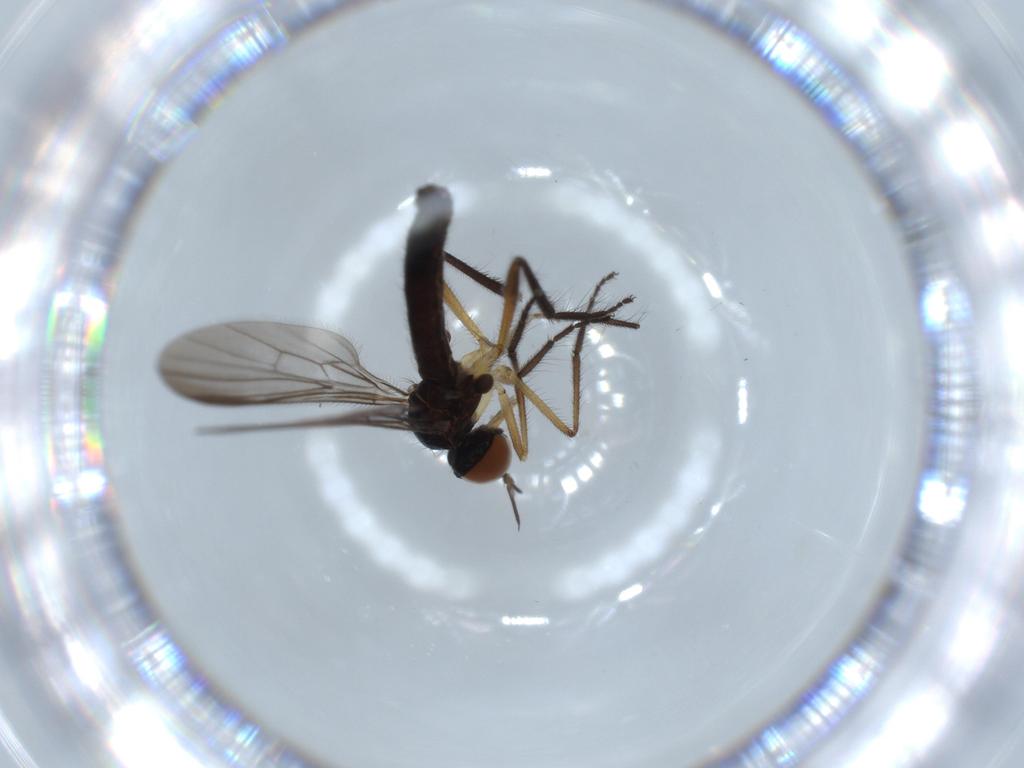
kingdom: Animalia
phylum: Arthropoda
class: Insecta
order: Diptera
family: Empididae
